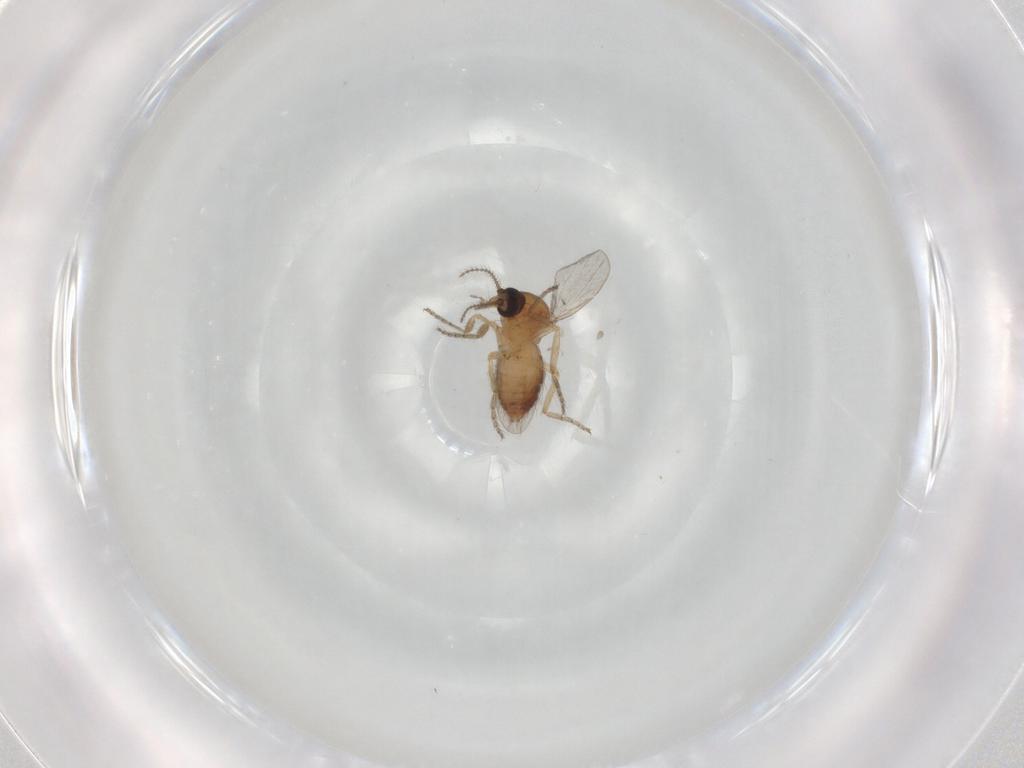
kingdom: Animalia
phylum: Arthropoda
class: Insecta
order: Diptera
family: Ceratopogonidae
